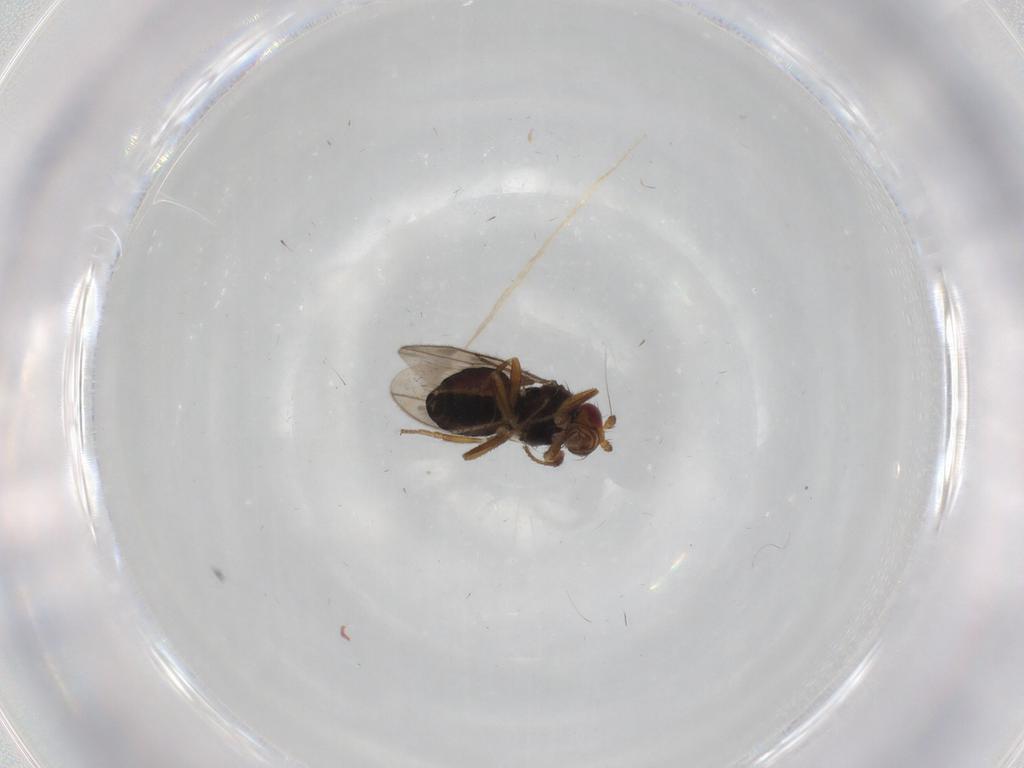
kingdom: Animalia
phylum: Arthropoda
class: Insecta
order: Diptera
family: Sphaeroceridae
